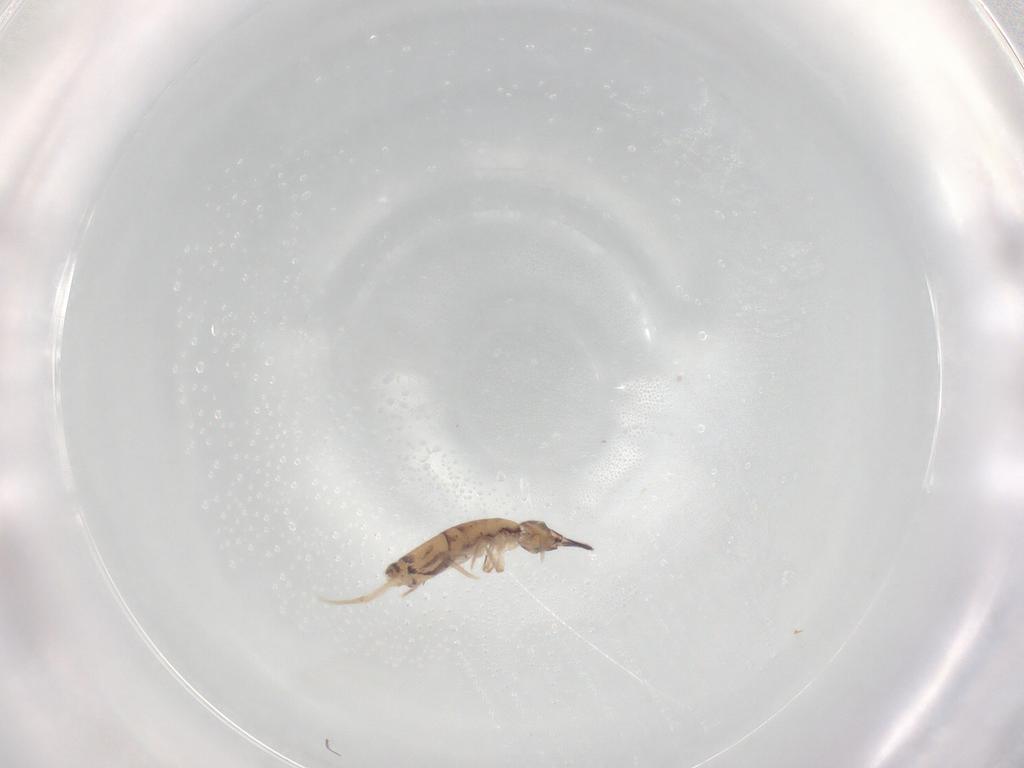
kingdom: Animalia
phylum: Arthropoda
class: Collembola
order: Entomobryomorpha
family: Entomobryidae
